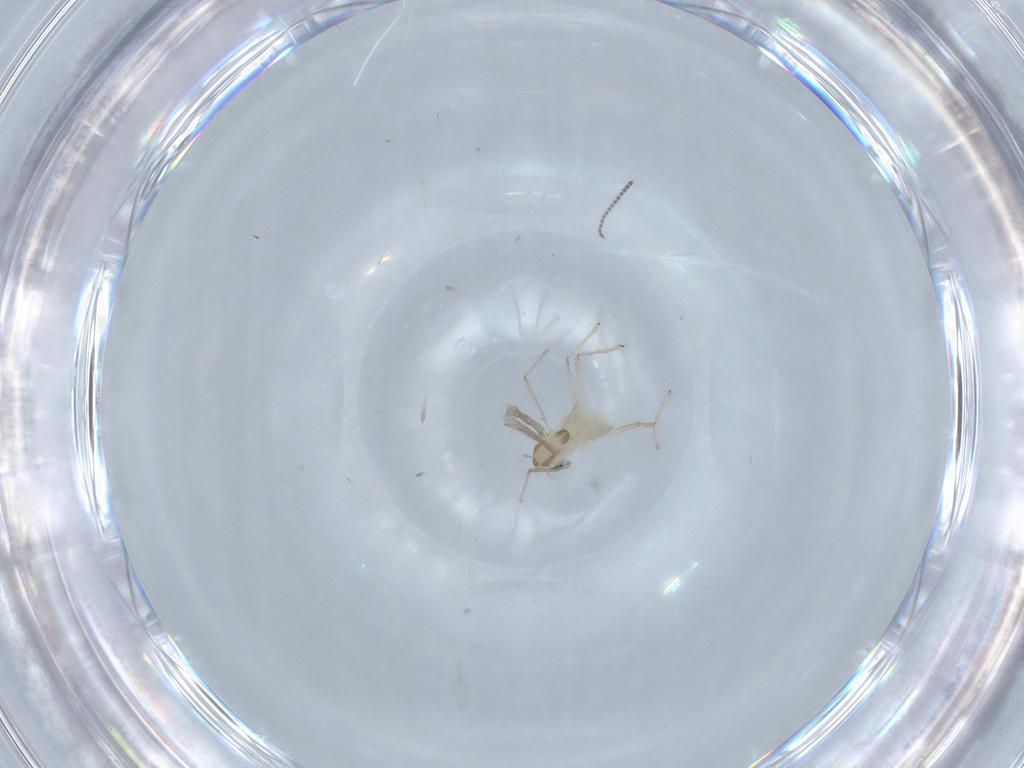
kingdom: Animalia
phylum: Arthropoda
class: Insecta
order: Diptera
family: Chironomidae
